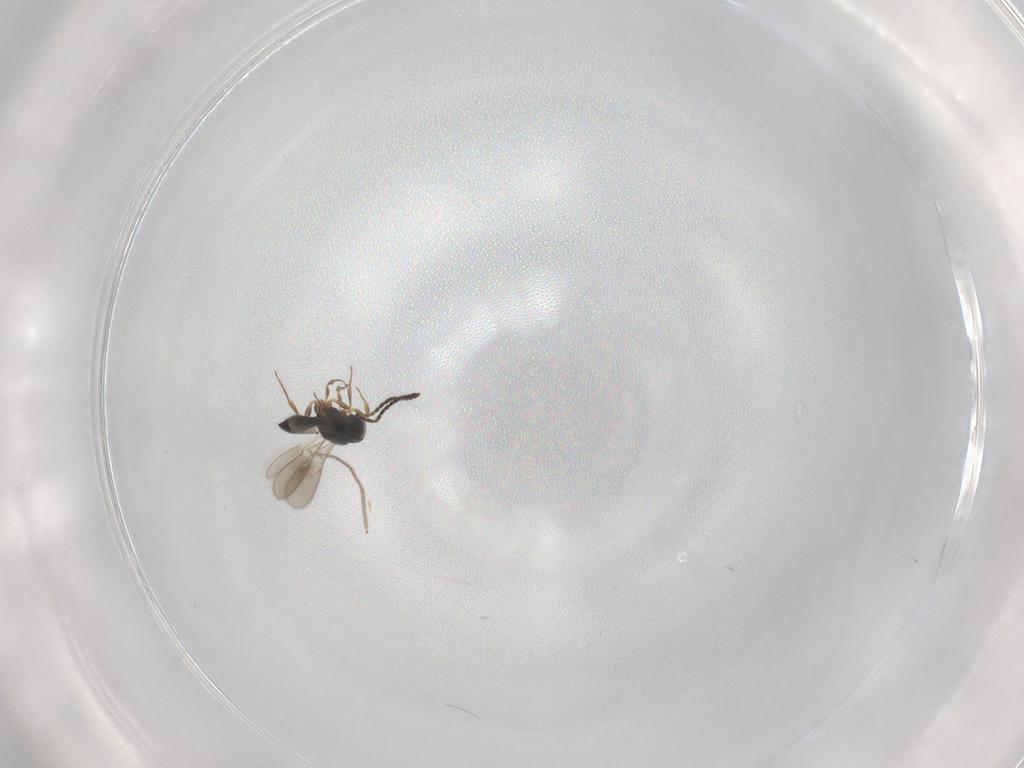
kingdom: Animalia
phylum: Arthropoda
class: Insecta
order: Hymenoptera
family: Scelionidae
